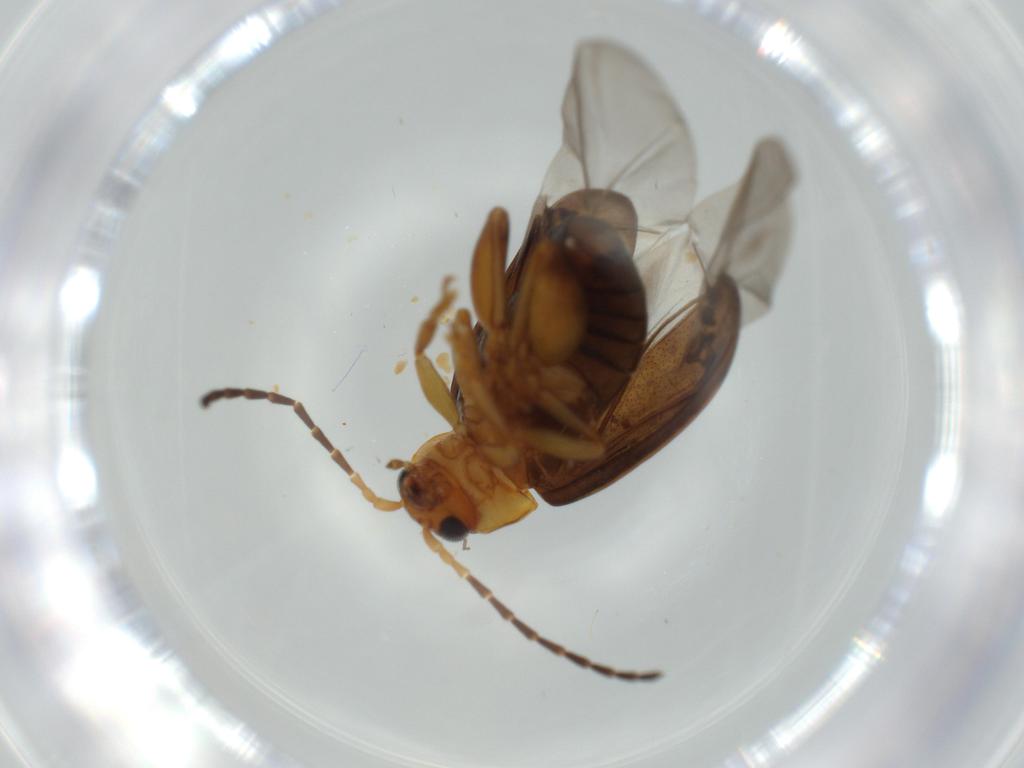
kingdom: Animalia
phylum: Arthropoda
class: Insecta
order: Coleoptera
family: Chrysomelidae
